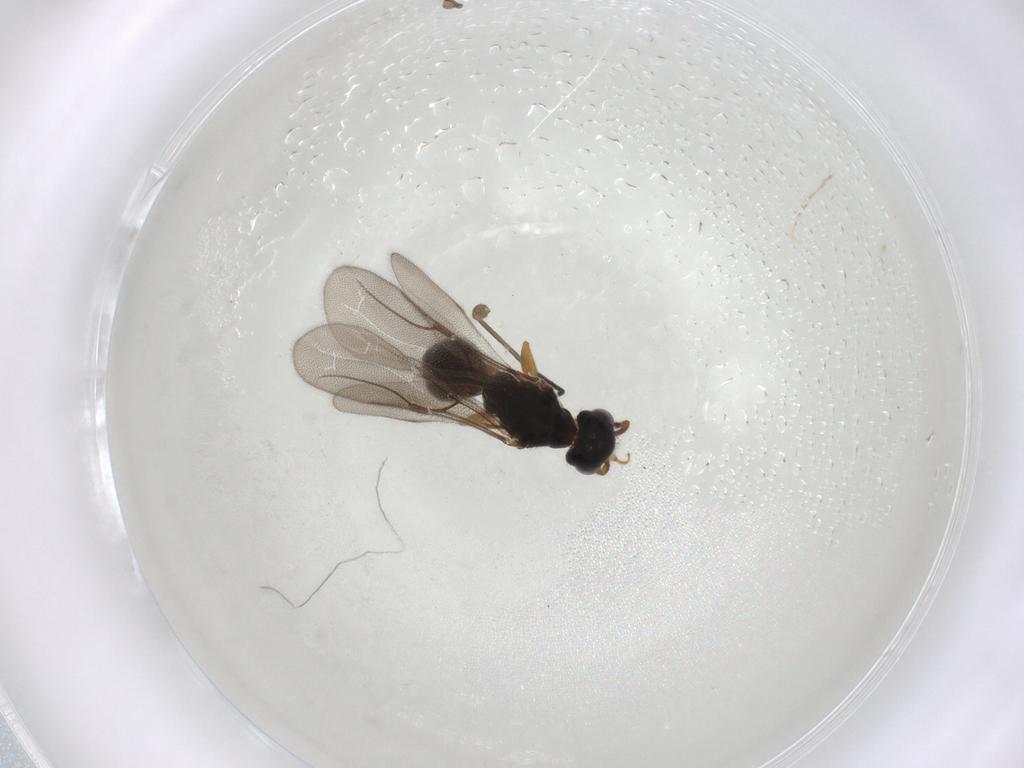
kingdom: Animalia
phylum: Arthropoda
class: Insecta
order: Hymenoptera
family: Bethylidae
